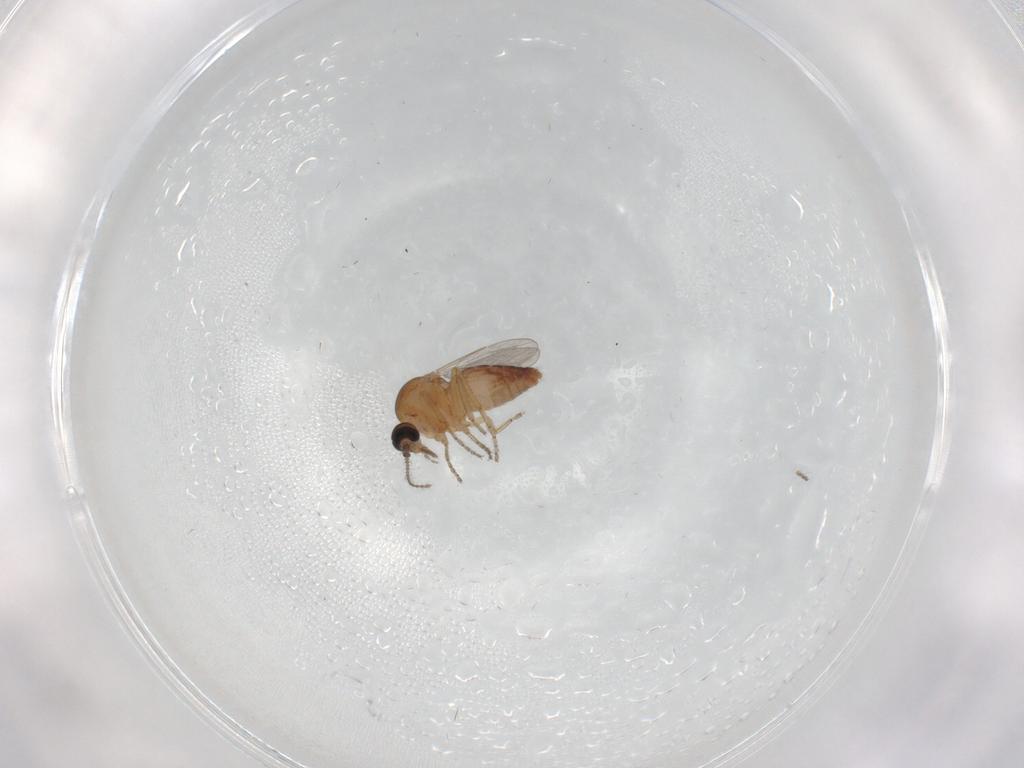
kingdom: Animalia
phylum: Arthropoda
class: Insecta
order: Diptera
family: Ceratopogonidae
